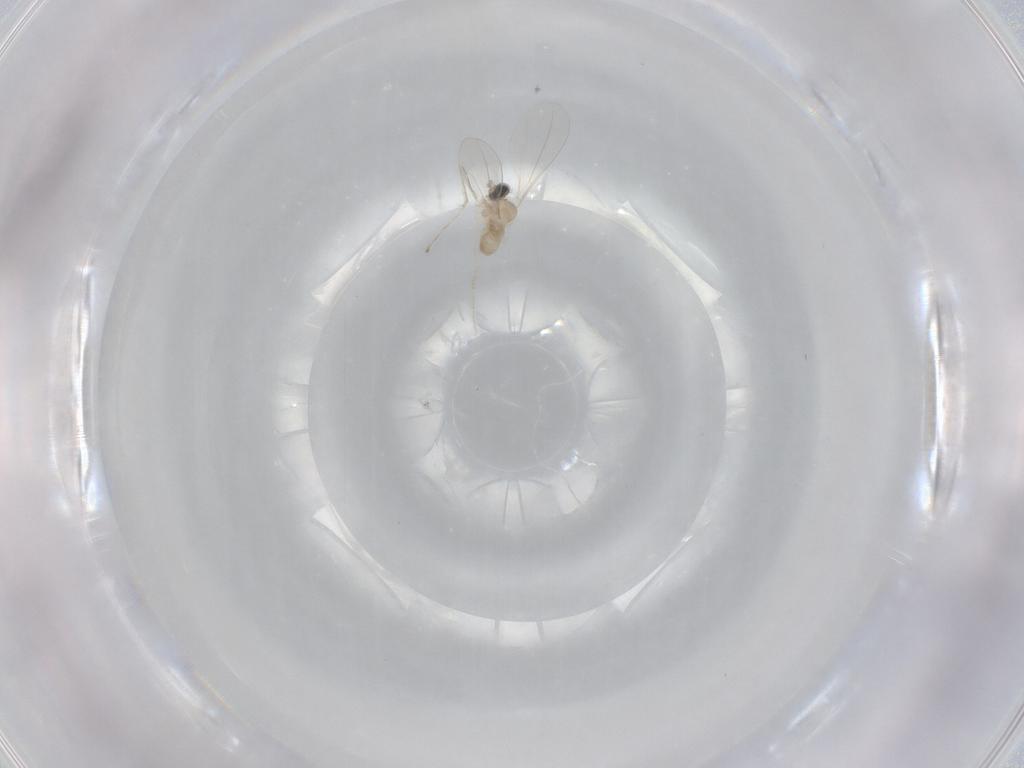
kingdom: Animalia
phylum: Arthropoda
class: Insecta
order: Diptera
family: Cecidomyiidae
